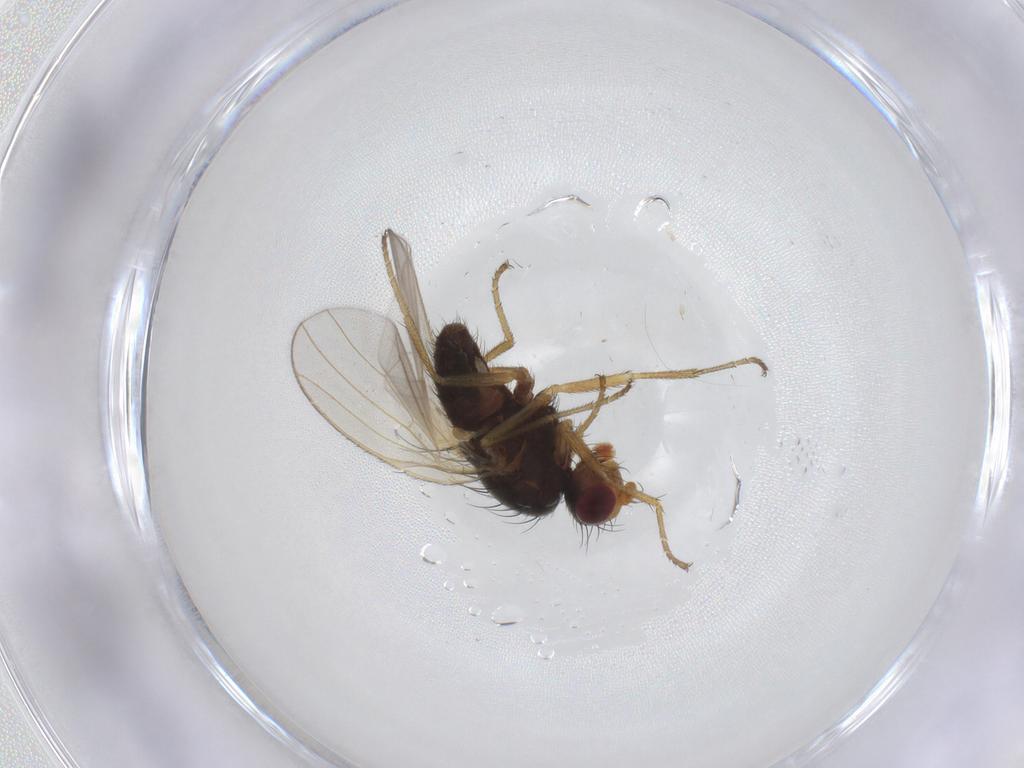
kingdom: Animalia
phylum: Arthropoda
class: Insecta
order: Diptera
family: Heleomyzidae
